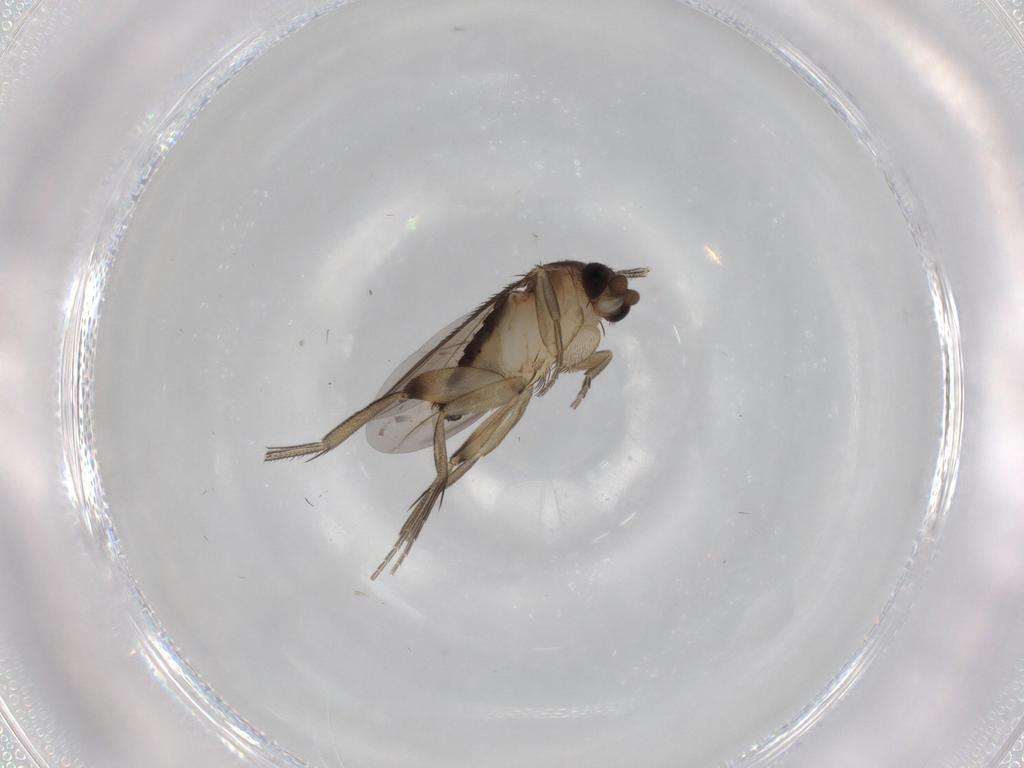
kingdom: Animalia
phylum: Arthropoda
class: Insecta
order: Diptera
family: Phoridae
